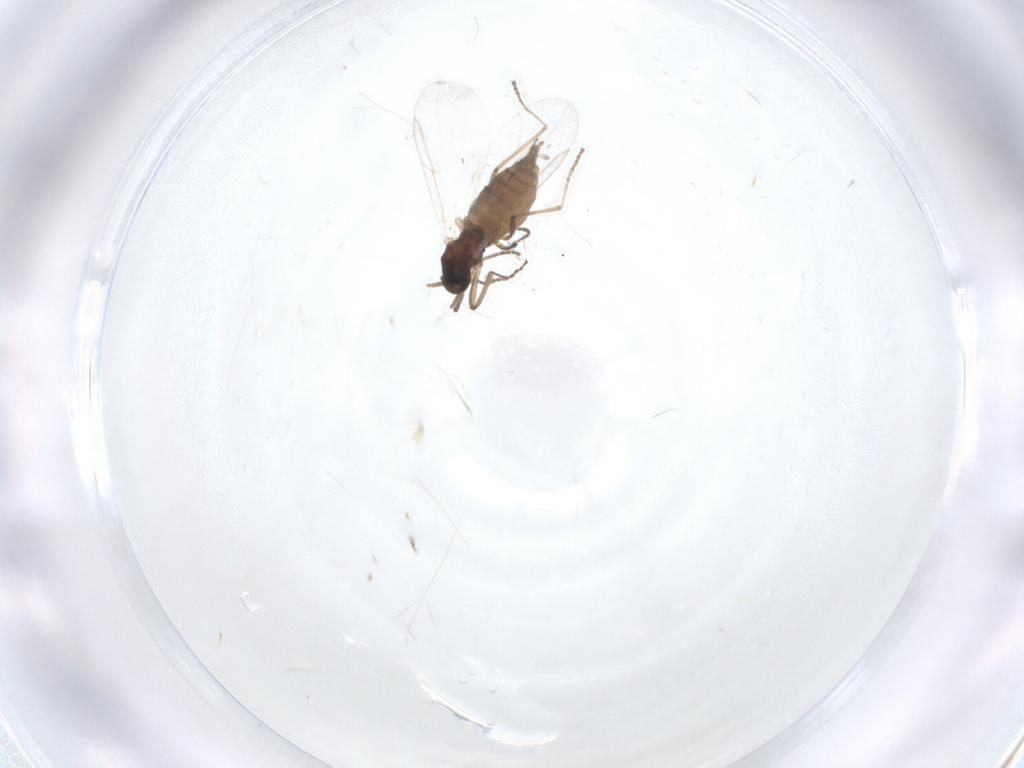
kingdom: Animalia
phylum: Arthropoda
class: Insecta
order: Diptera
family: Cecidomyiidae
